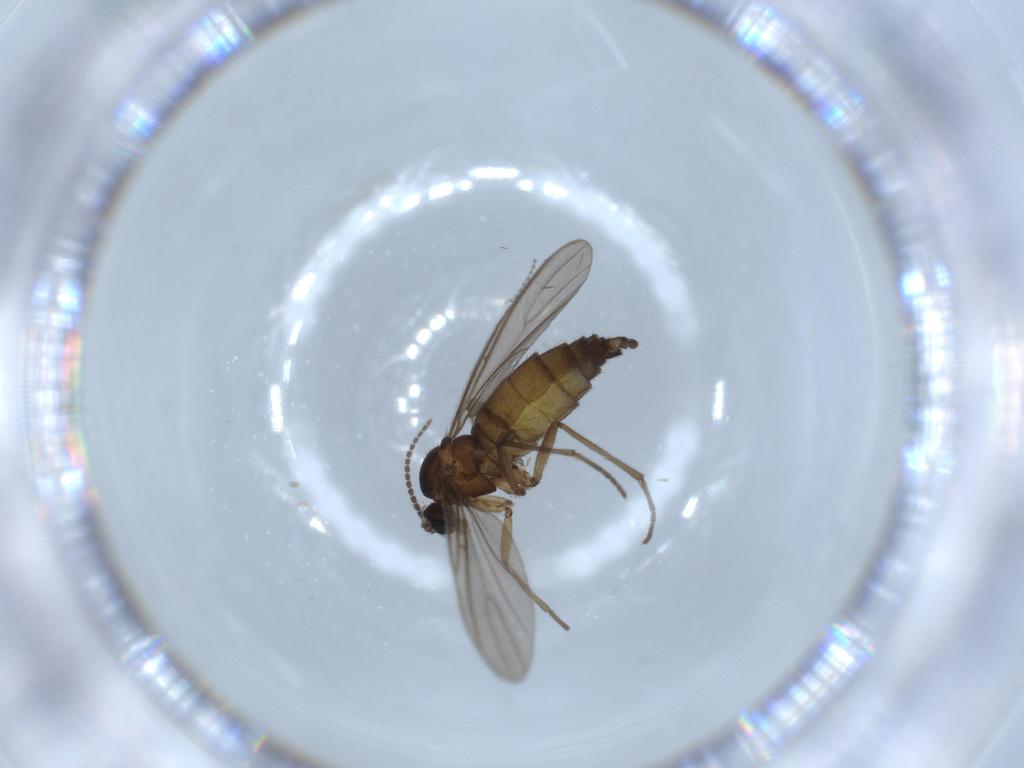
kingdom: Animalia
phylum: Arthropoda
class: Insecta
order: Diptera
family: Sciaridae
